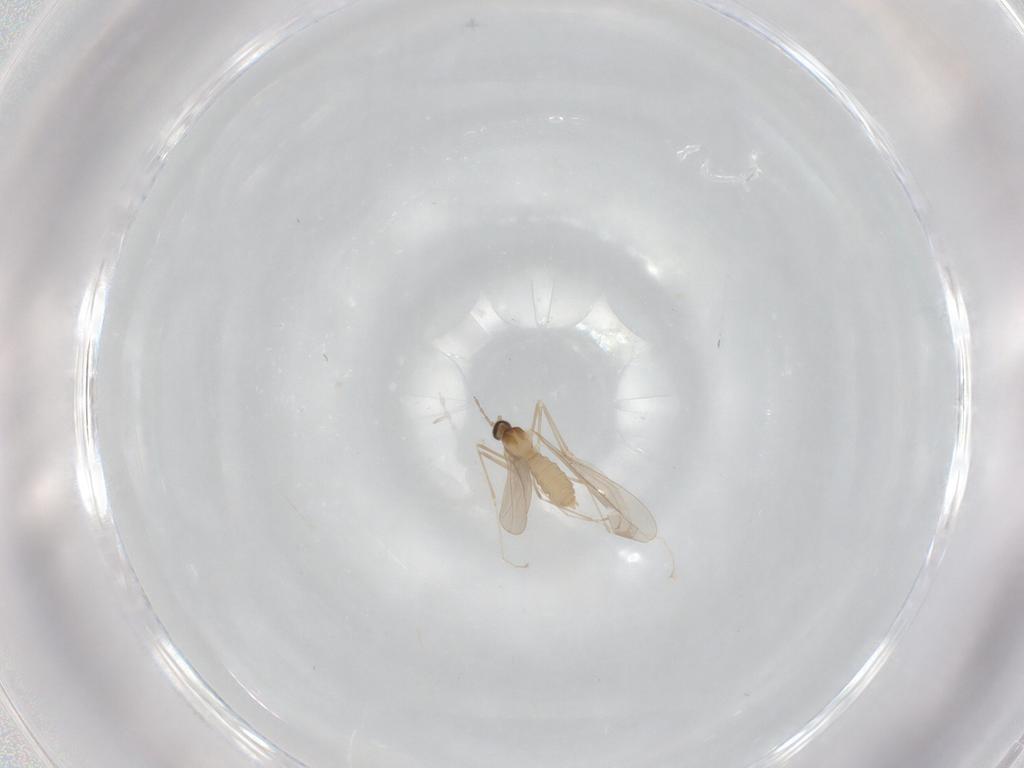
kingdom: Animalia
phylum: Arthropoda
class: Insecta
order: Diptera
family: Cecidomyiidae
